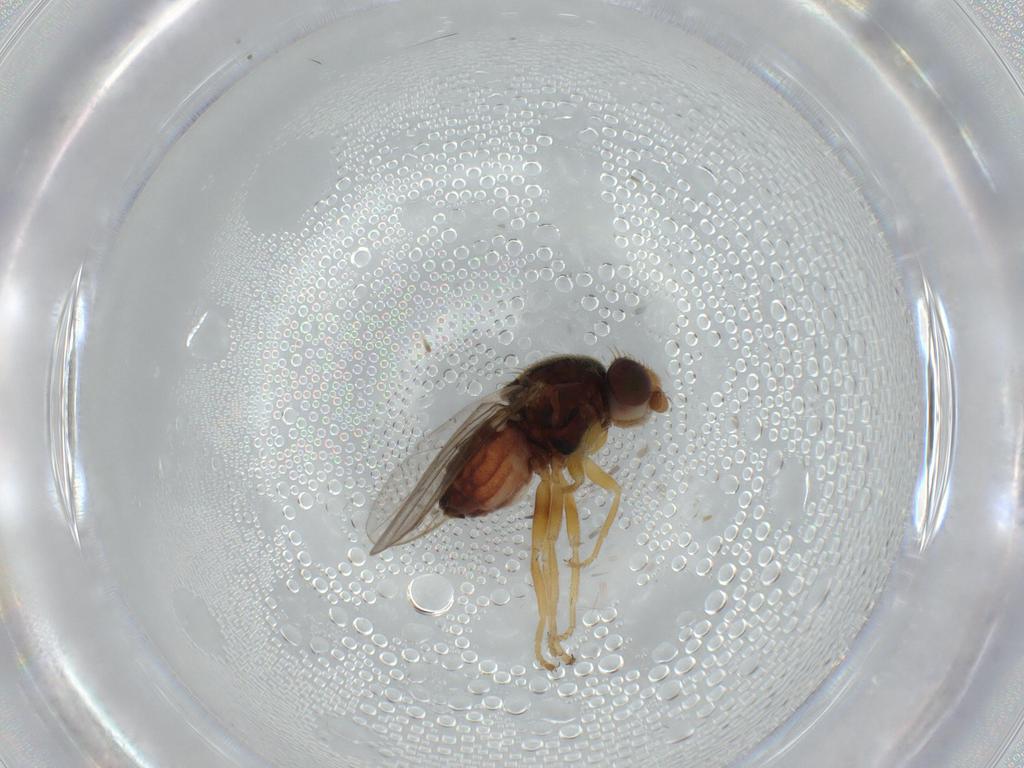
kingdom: Animalia
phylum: Arthropoda
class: Insecta
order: Diptera
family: Chloropidae
